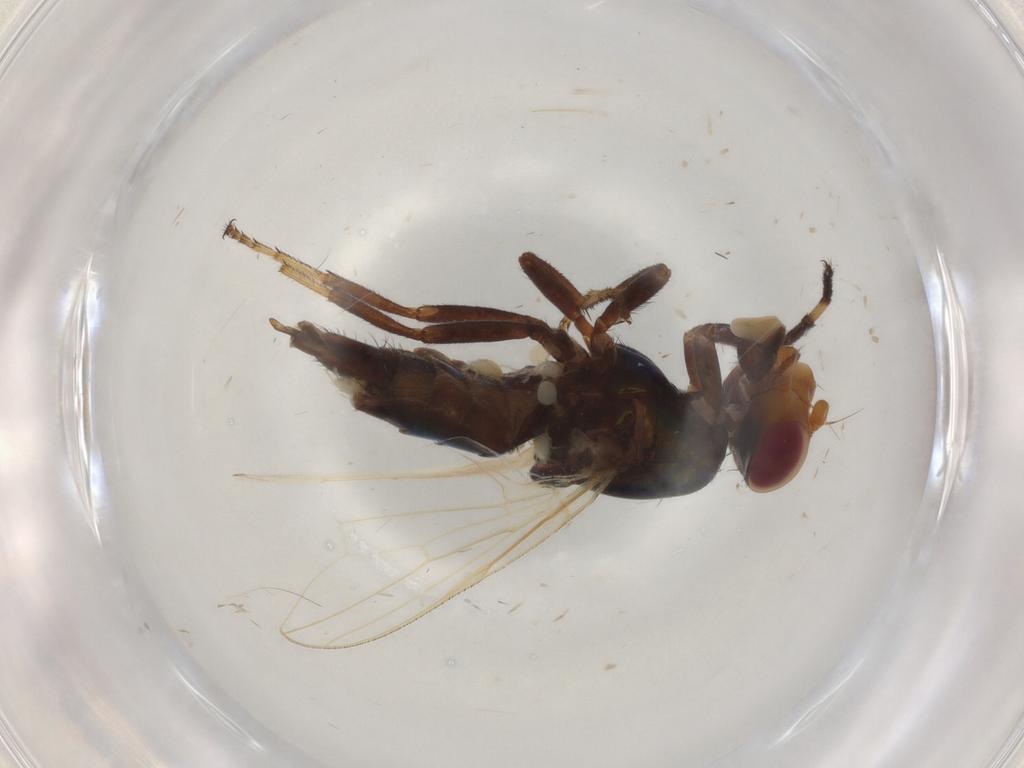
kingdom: Animalia
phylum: Arthropoda
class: Insecta
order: Diptera
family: Ulidiidae
